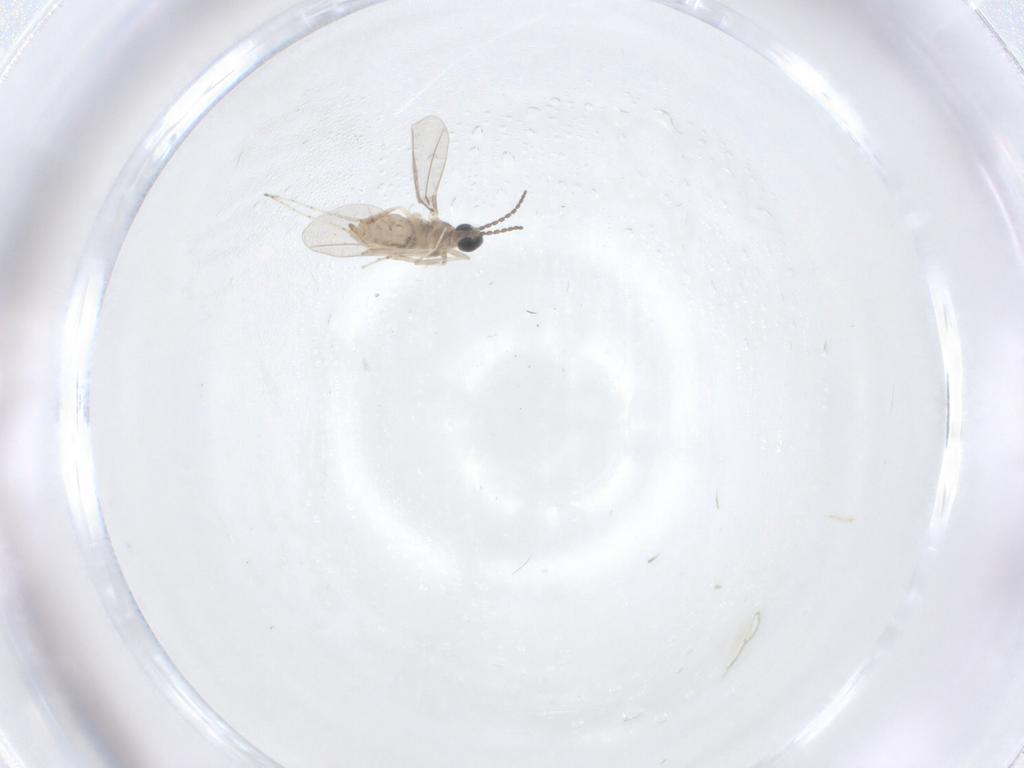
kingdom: Animalia
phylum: Arthropoda
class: Insecta
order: Diptera
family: Cecidomyiidae
